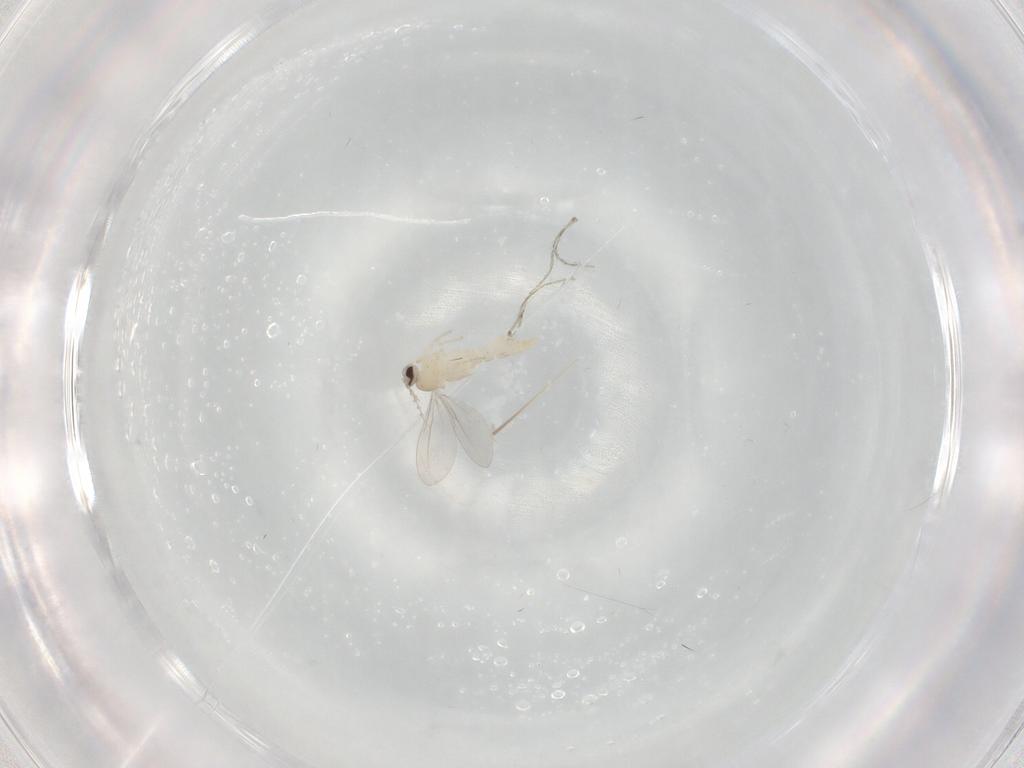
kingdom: Animalia
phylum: Arthropoda
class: Insecta
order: Diptera
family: Cecidomyiidae
